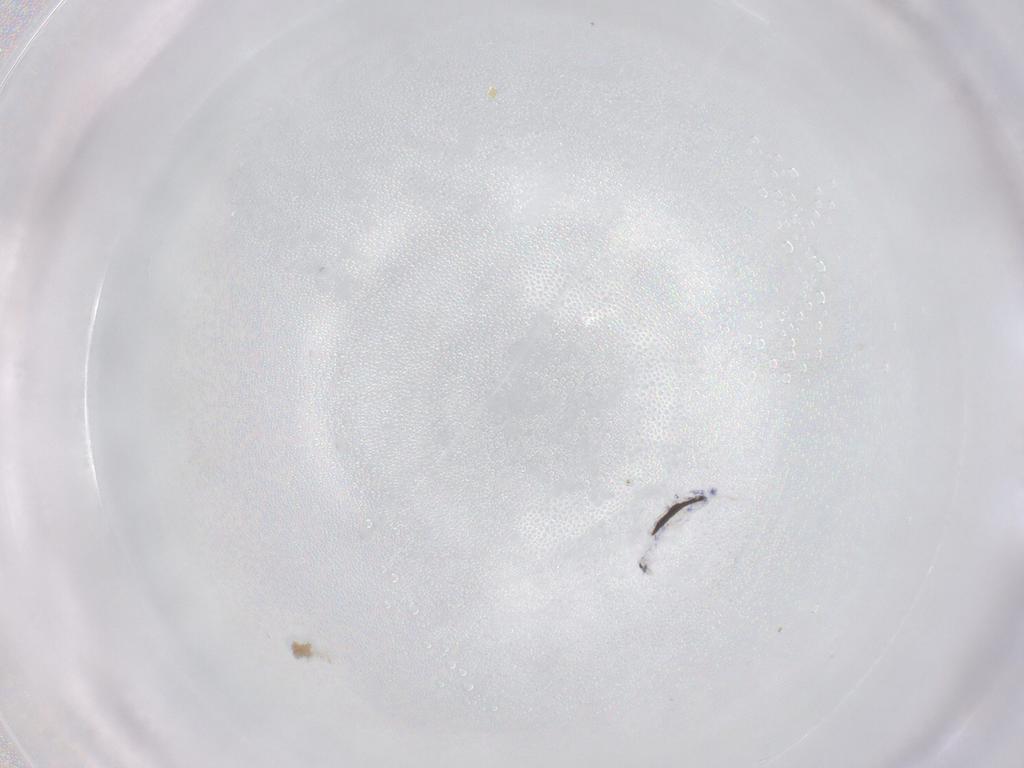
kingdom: Animalia
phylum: Arthropoda
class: Collembola
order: Entomobryomorpha
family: Entomobryidae
